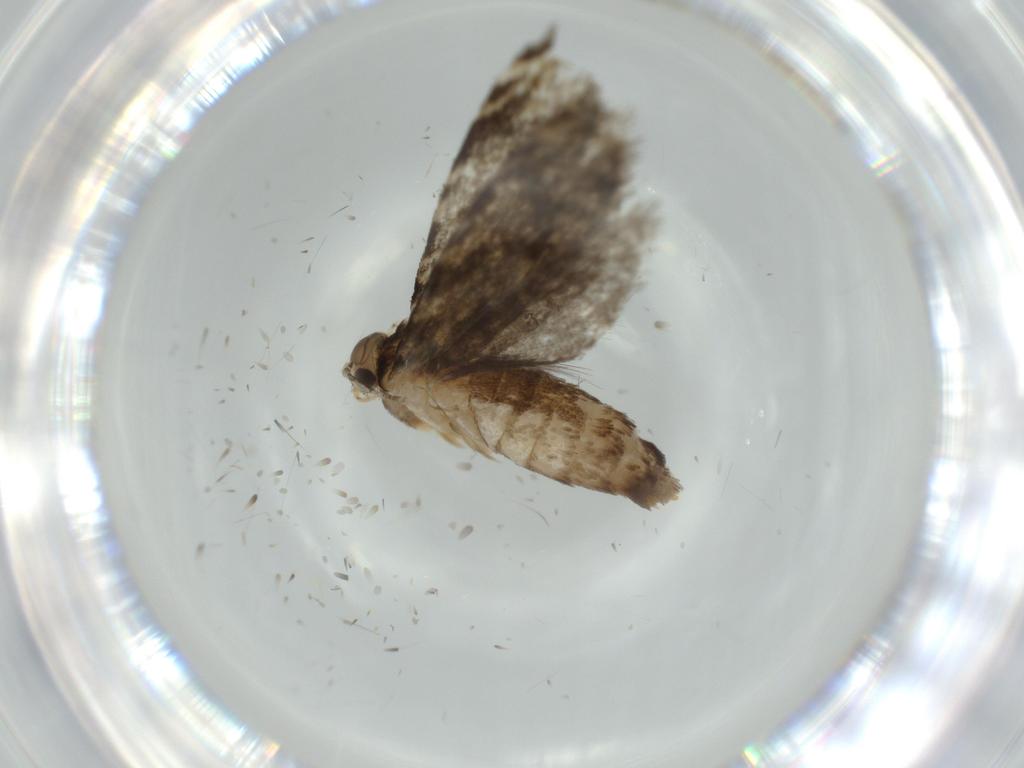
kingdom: Animalia
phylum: Arthropoda
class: Insecta
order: Lepidoptera
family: Tineidae
